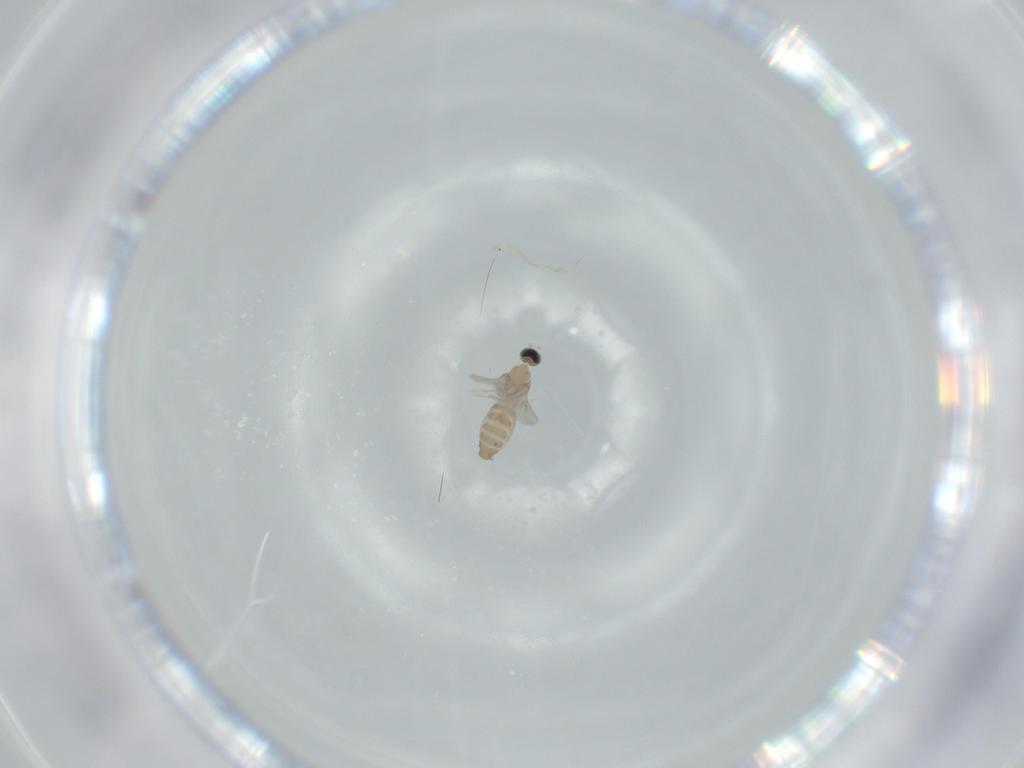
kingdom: Animalia
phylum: Arthropoda
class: Insecta
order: Diptera
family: Cecidomyiidae
